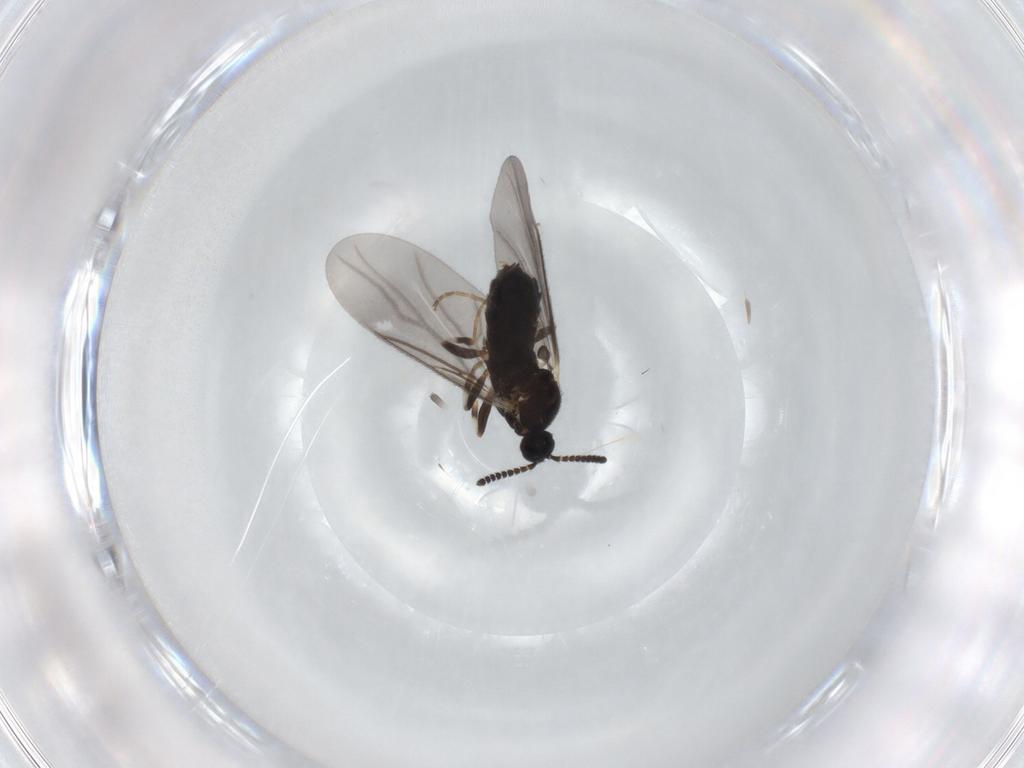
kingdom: Animalia
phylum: Arthropoda
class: Insecta
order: Diptera
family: Scatopsidae
